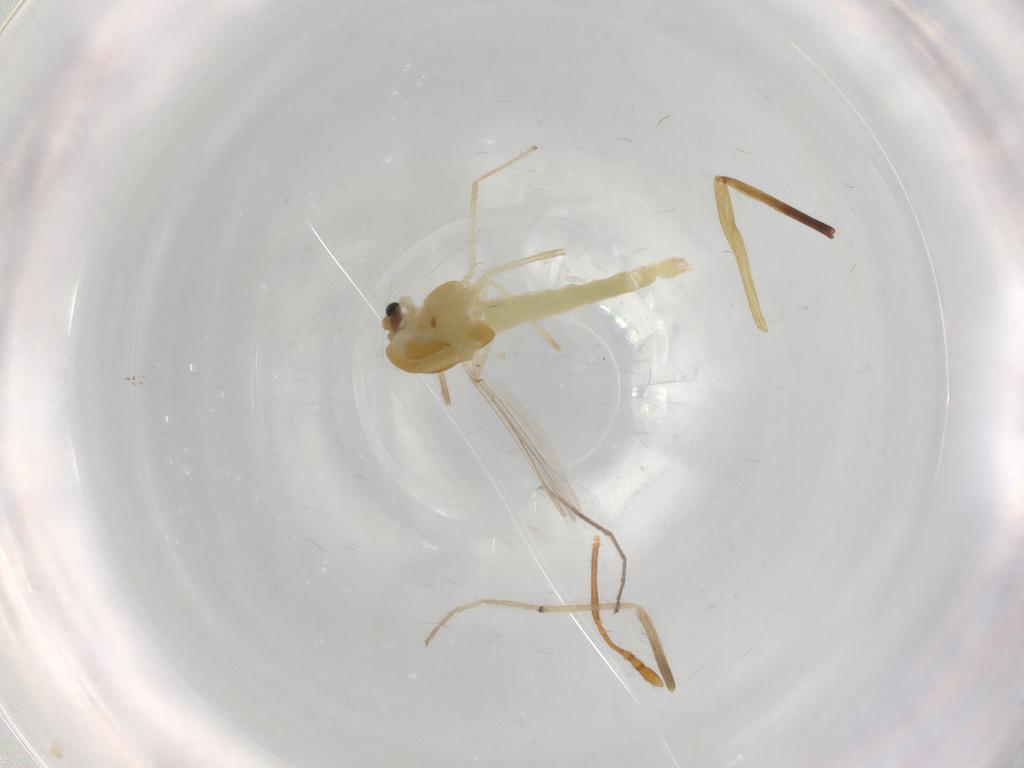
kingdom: Animalia
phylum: Arthropoda
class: Insecta
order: Diptera
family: Chironomidae
